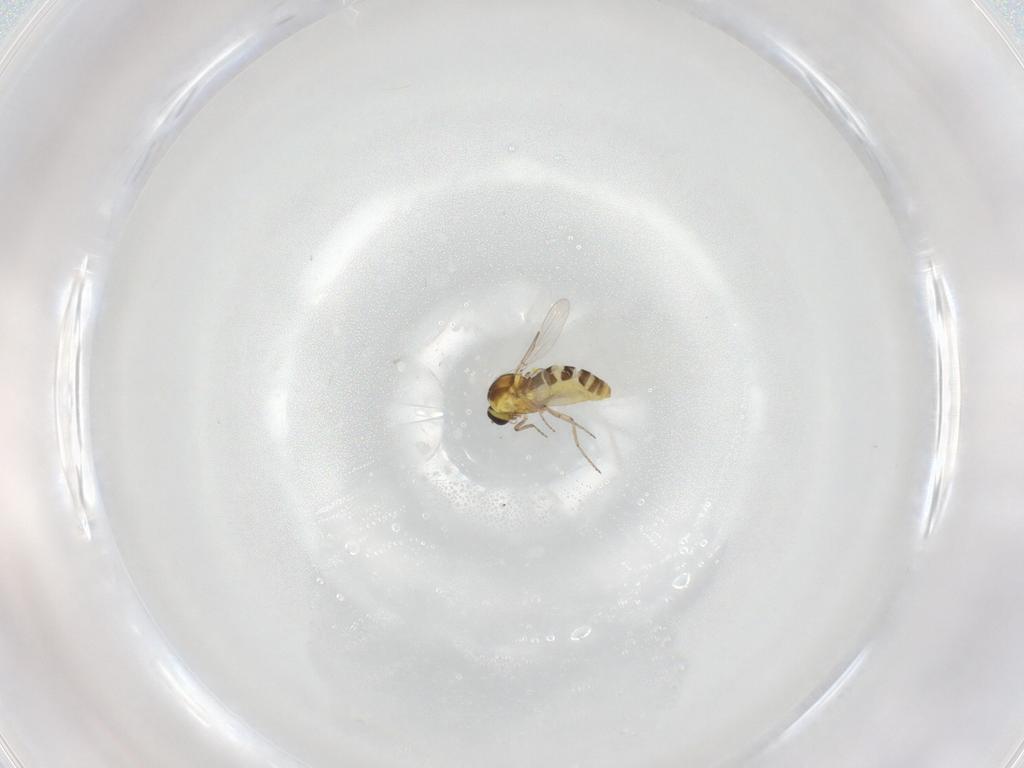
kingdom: Animalia
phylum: Arthropoda
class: Insecta
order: Diptera
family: Ceratopogonidae
